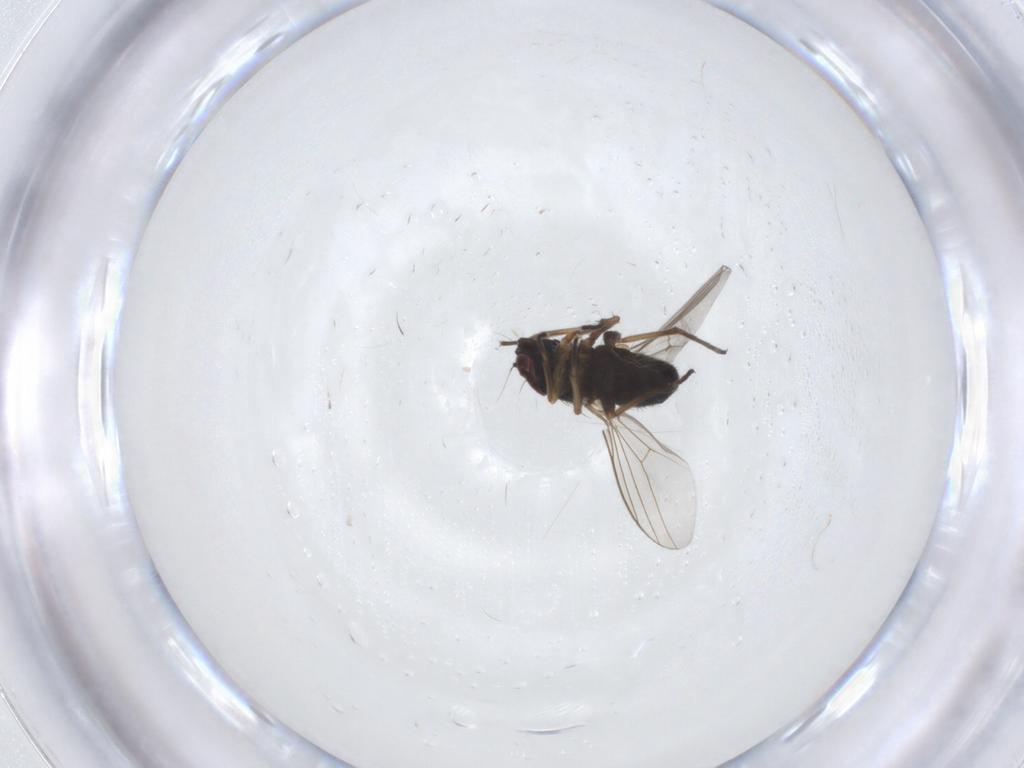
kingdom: Animalia
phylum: Arthropoda
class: Insecta
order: Diptera
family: Dolichopodidae
